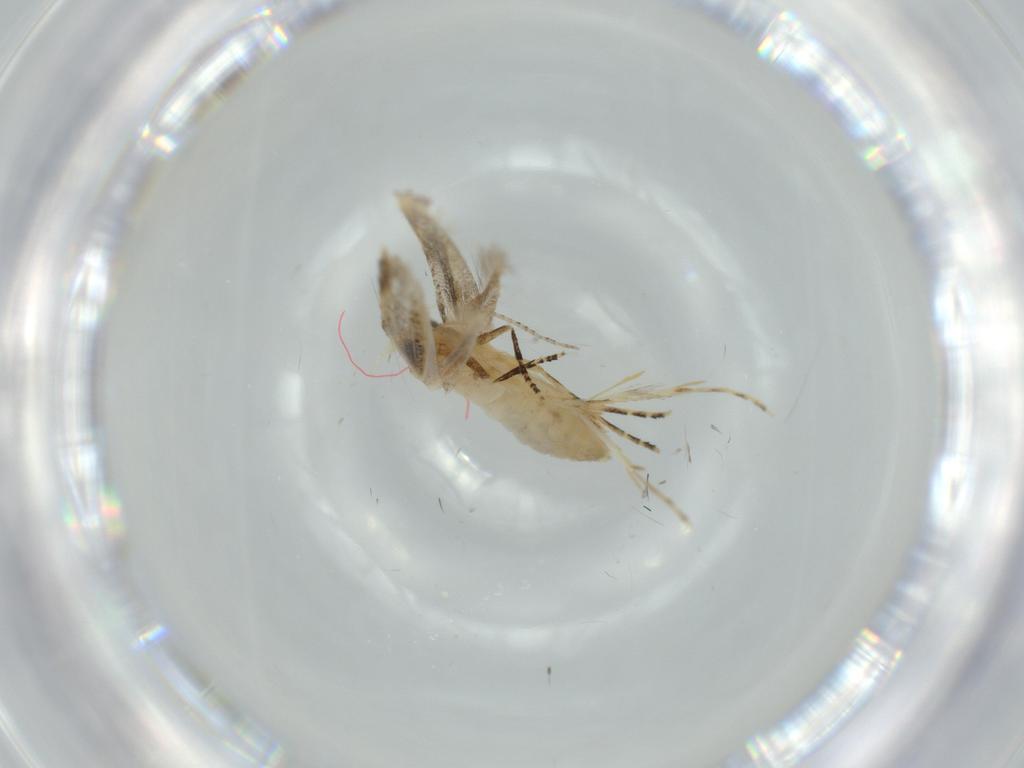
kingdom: Animalia
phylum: Arthropoda
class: Insecta
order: Lepidoptera
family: Bucculatricidae
